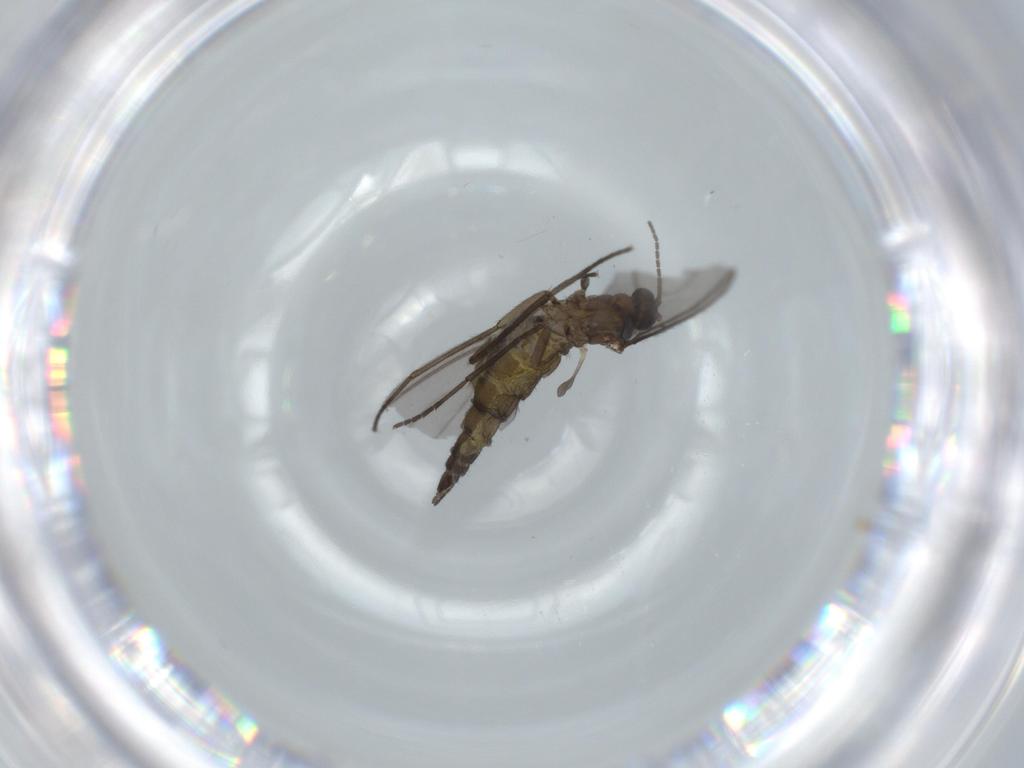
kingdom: Animalia
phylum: Arthropoda
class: Insecta
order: Diptera
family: Sciaridae
